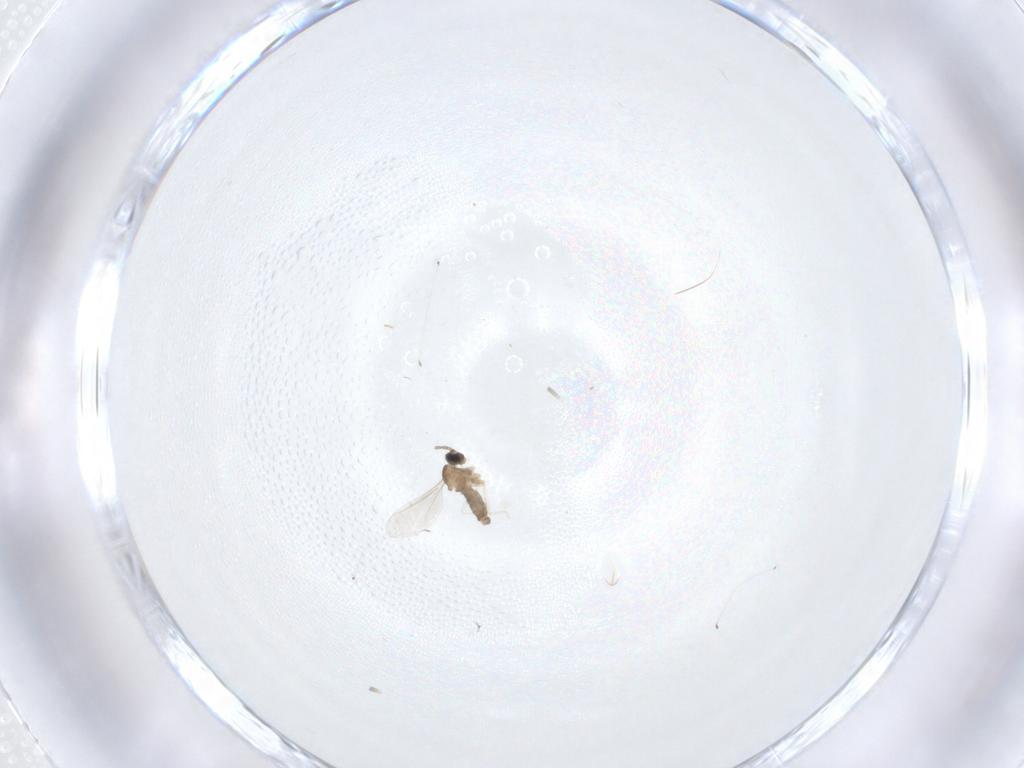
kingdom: Animalia
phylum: Arthropoda
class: Insecta
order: Diptera
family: Cecidomyiidae
